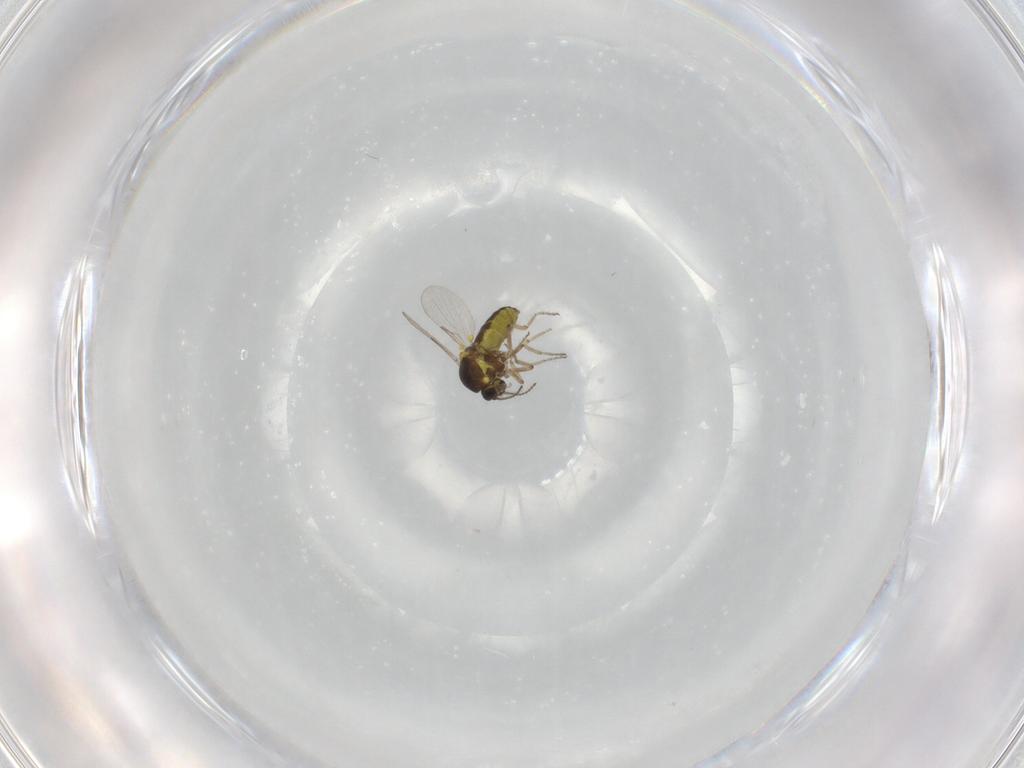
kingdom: Animalia
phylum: Arthropoda
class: Insecta
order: Diptera
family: Ceratopogonidae
